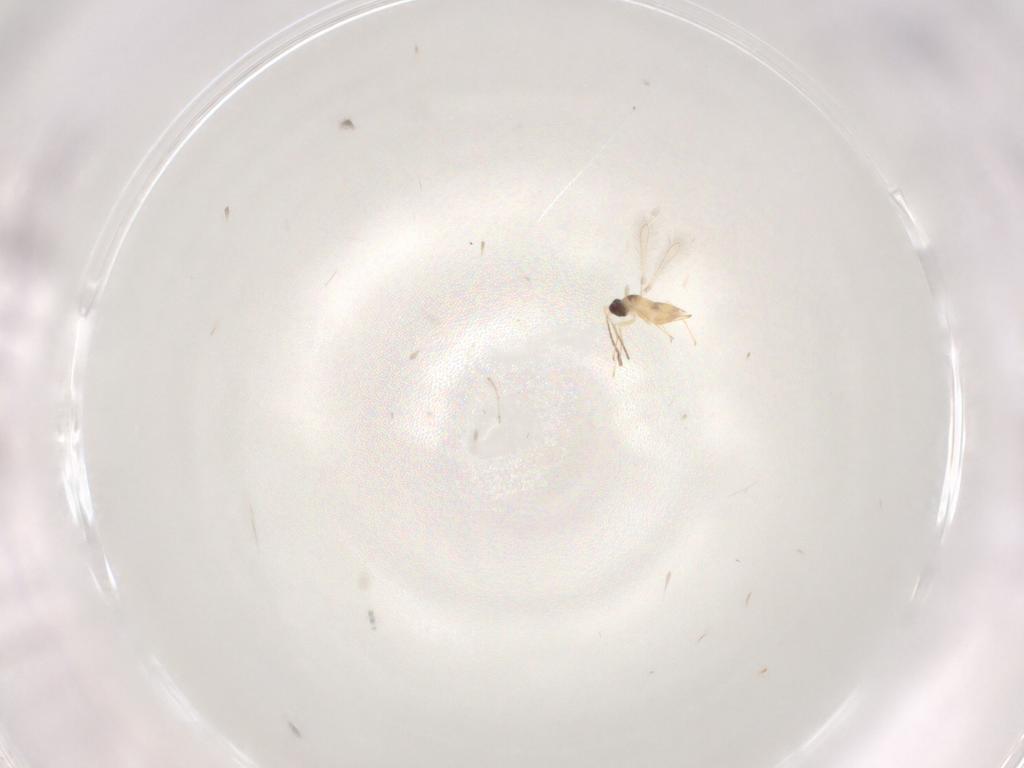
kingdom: Animalia
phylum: Arthropoda
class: Insecta
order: Hymenoptera
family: Mymaridae
